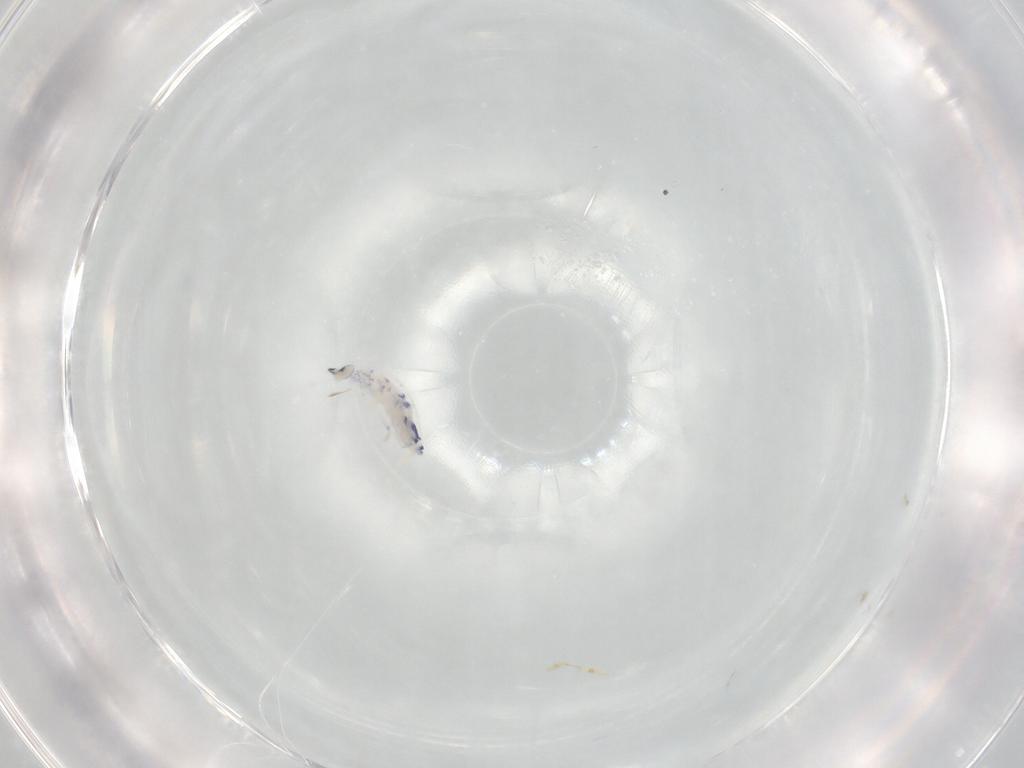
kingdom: Animalia
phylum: Arthropoda
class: Collembola
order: Entomobryomorpha
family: Entomobryidae
